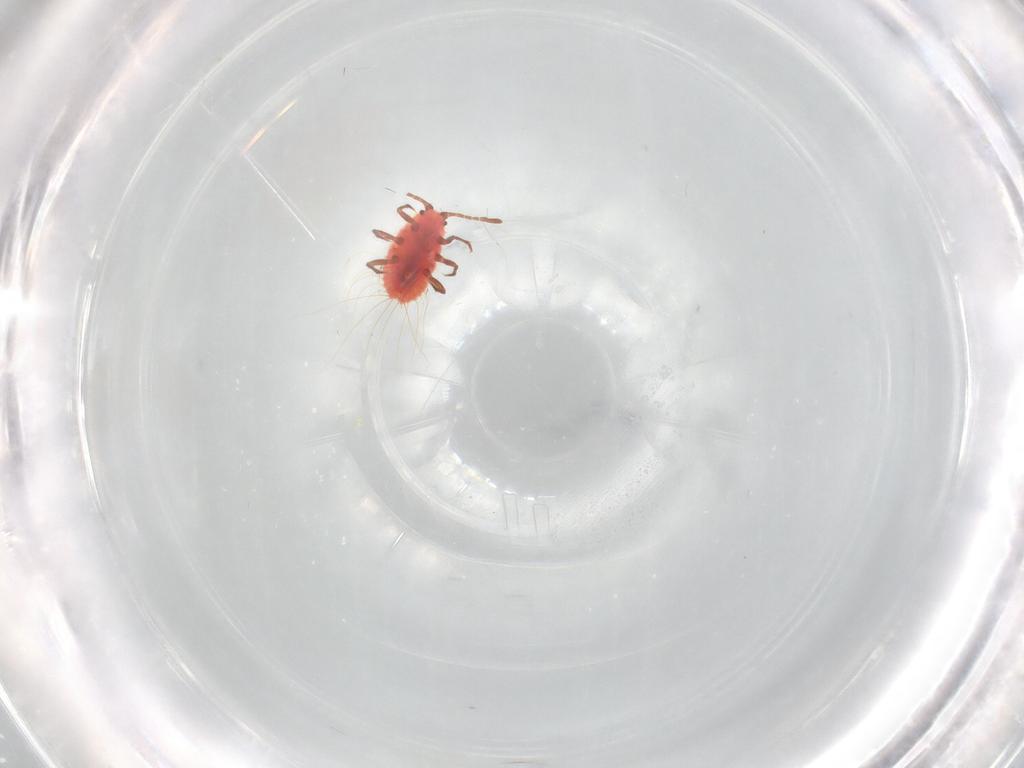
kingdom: Animalia
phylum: Arthropoda
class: Insecta
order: Hemiptera
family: Coccoidea_incertae_sedis
